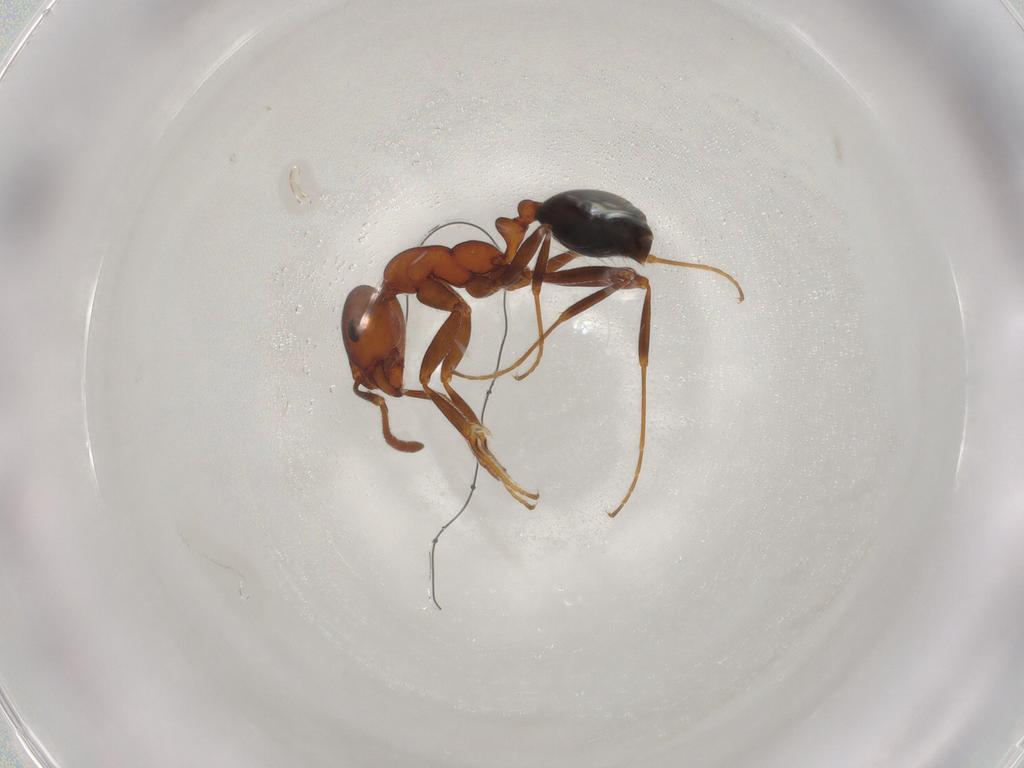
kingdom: Animalia
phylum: Arthropoda
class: Insecta
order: Hymenoptera
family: Formicidae
